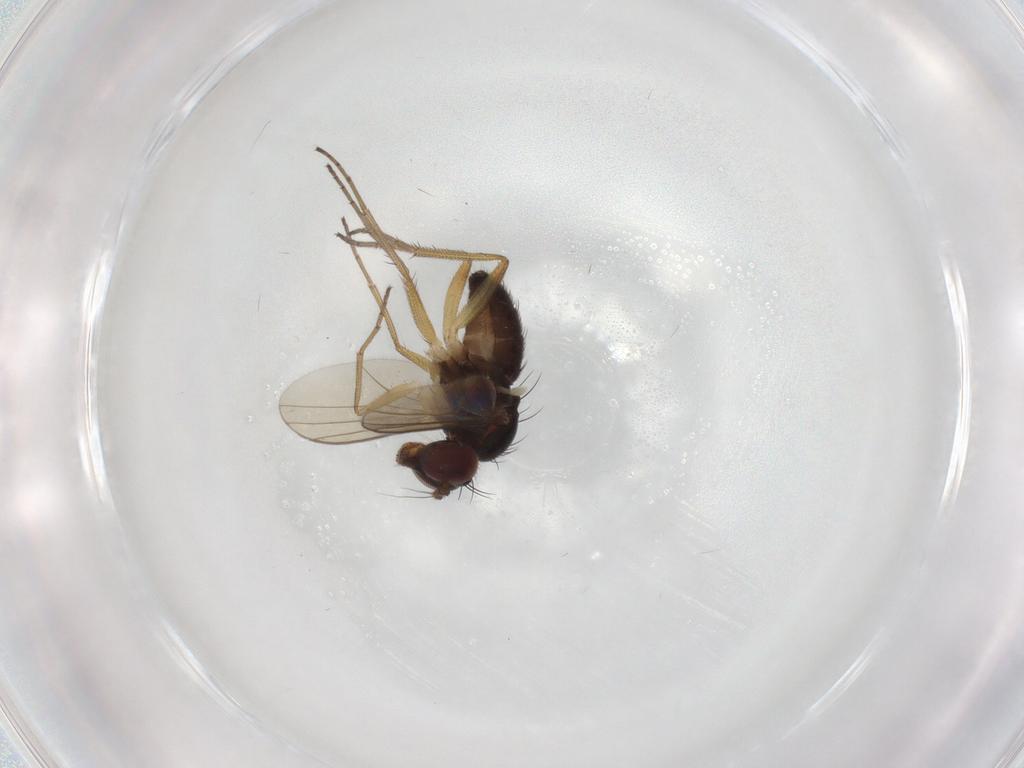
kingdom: Animalia
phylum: Arthropoda
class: Insecta
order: Diptera
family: Dolichopodidae
